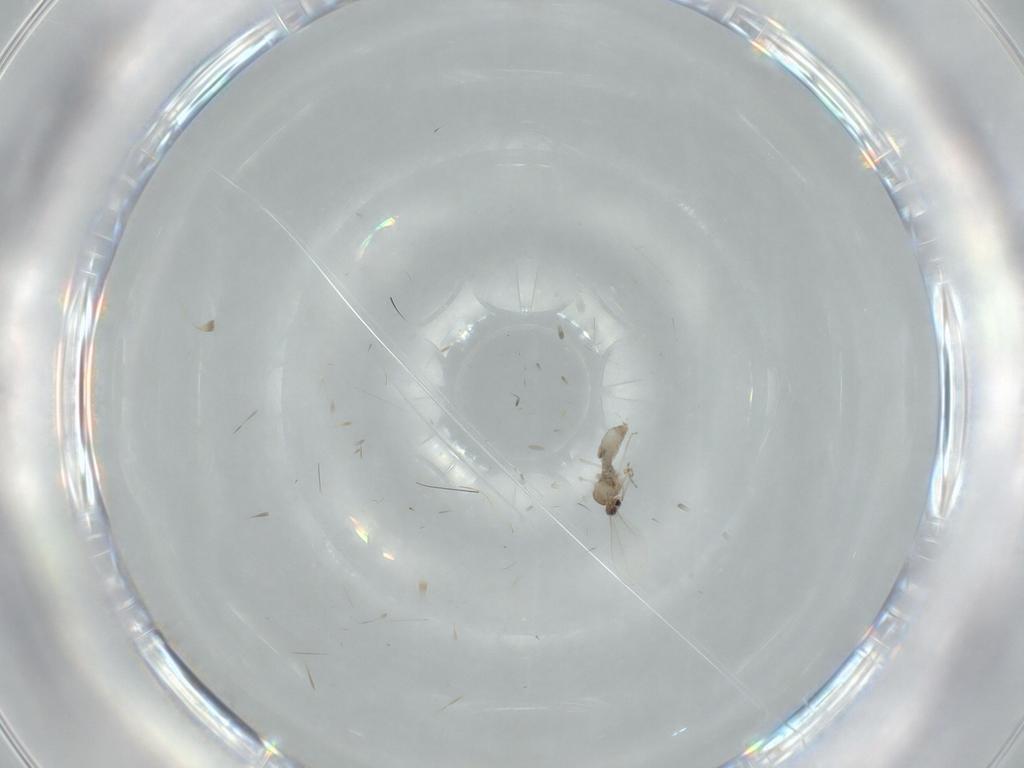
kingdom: Animalia
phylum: Arthropoda
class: Insecta
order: Diptera
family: Cecidomyiidae
